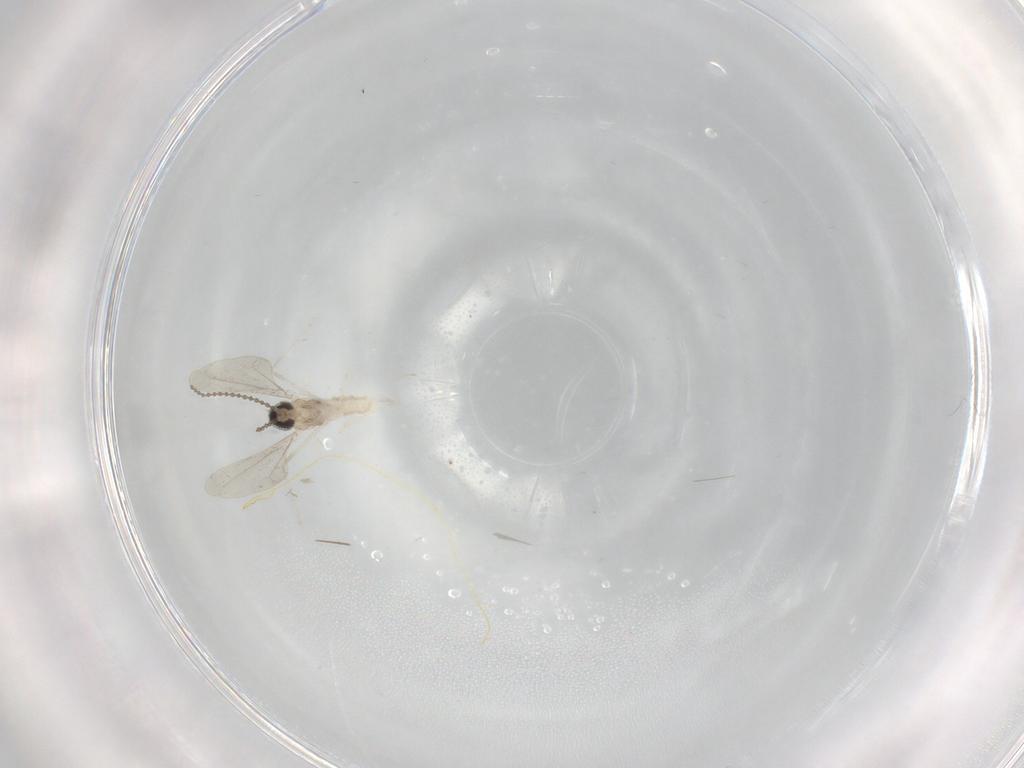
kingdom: Animalia
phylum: Arthropoda
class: Insecta
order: Diptera
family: Cecidomyiidae
